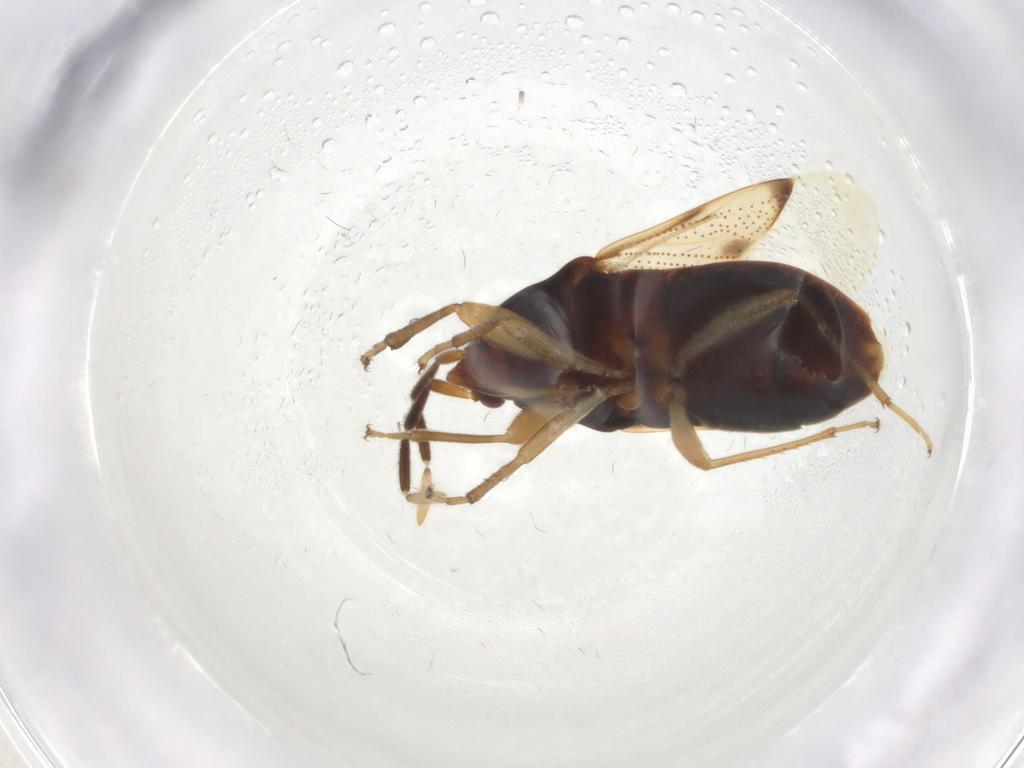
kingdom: Animalia
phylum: Arthropoda
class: Insecta
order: Hemiptera
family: Rhyparochromidae
